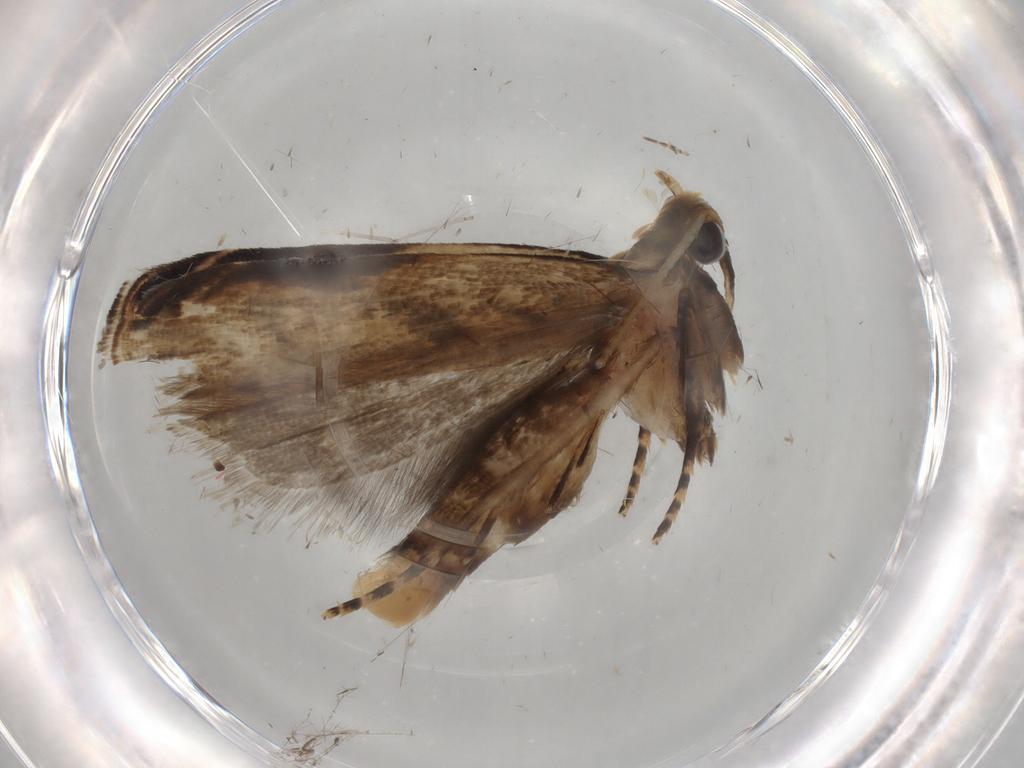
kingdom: Animalia
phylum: Arthropoda
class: Insecta
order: Lepidoptera
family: Gelechiidae
